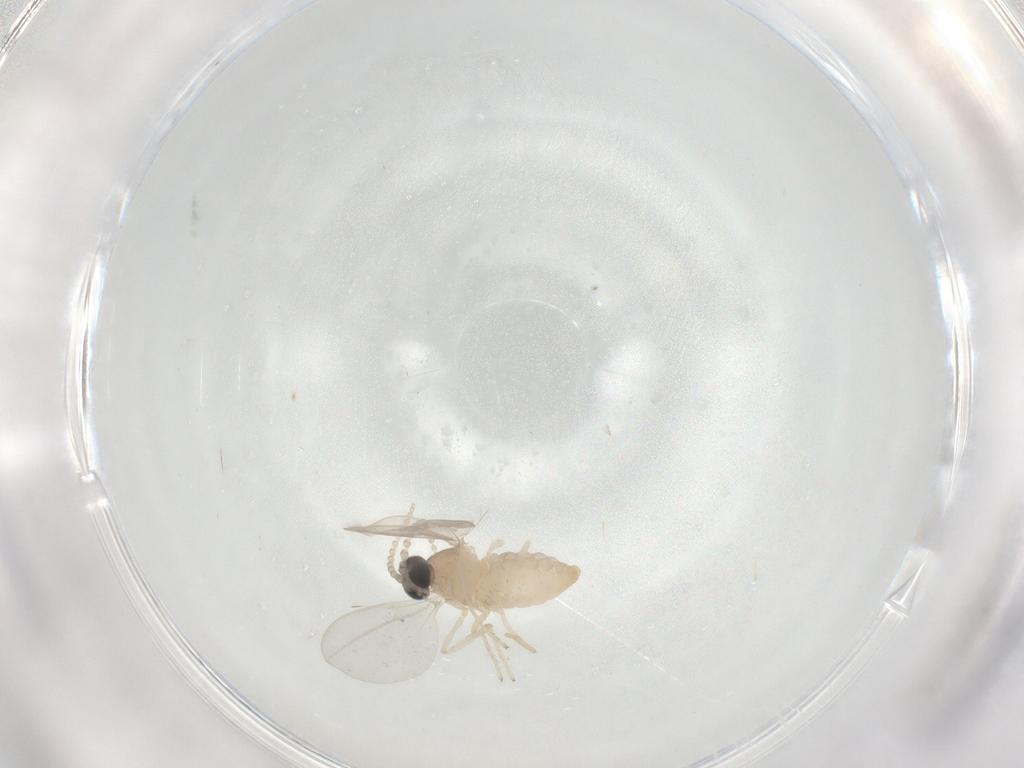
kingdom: Animalia
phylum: Arthropoda
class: Insecta
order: Diptera
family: Cecidomyiidae
